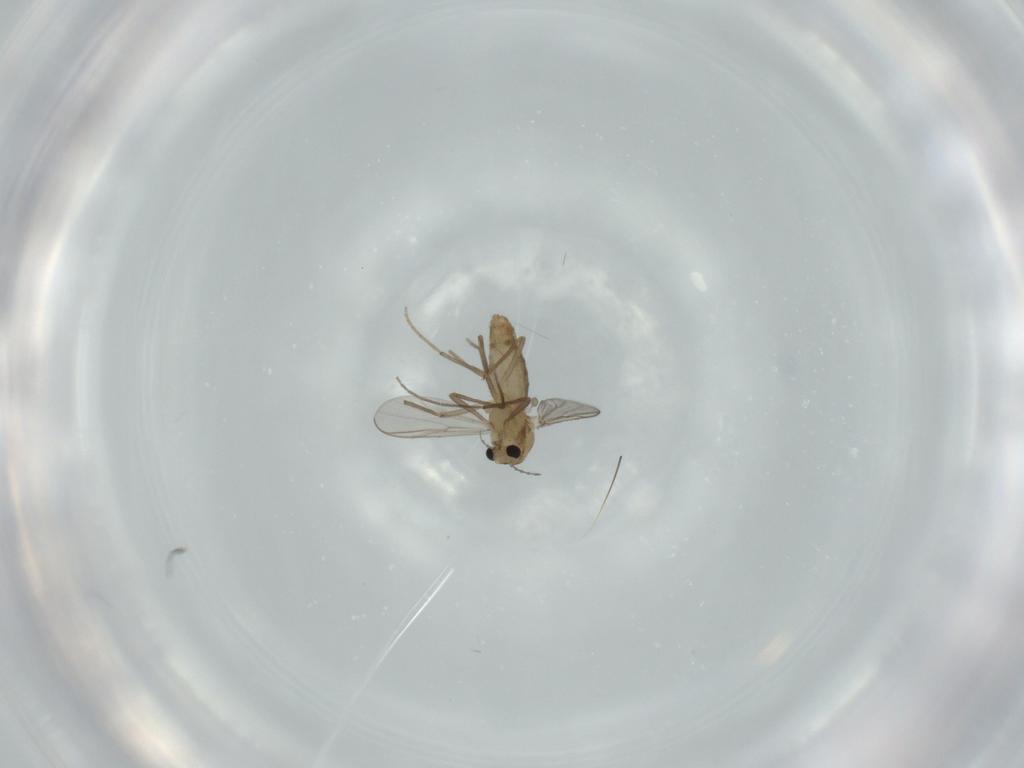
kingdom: Animalia
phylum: Arthropoda
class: Insecta
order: Diptera
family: Chironomidae
